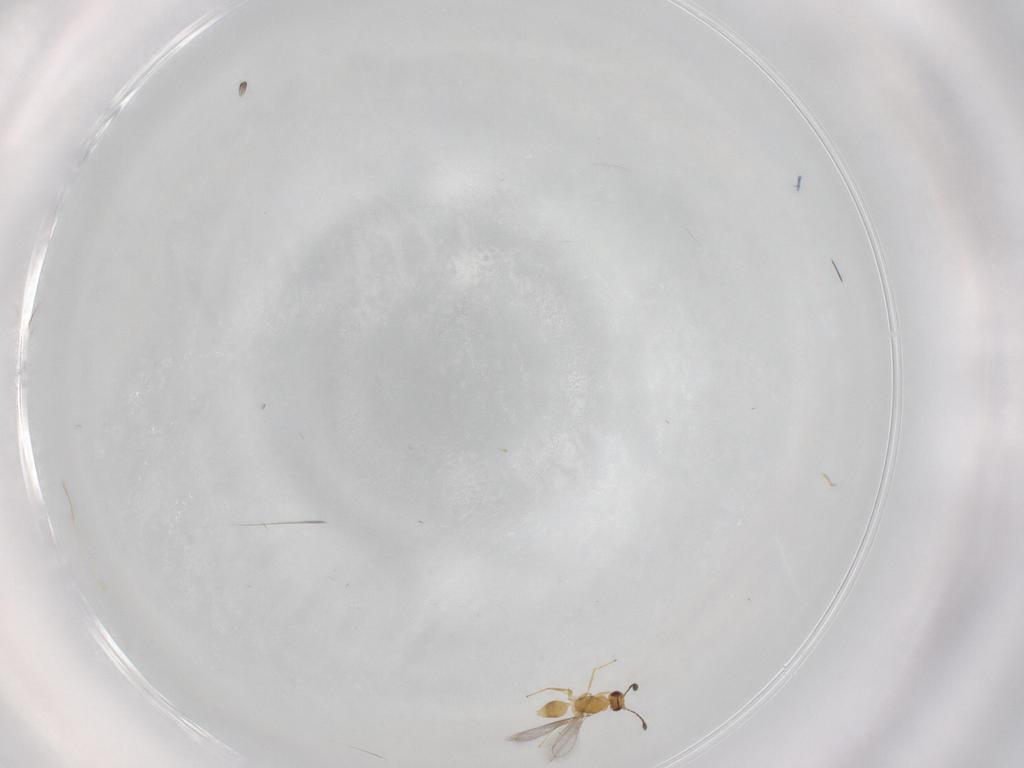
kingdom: Animalia
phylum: Arthropoda
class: Insecta
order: Hymenoptera
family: Mymaridae
